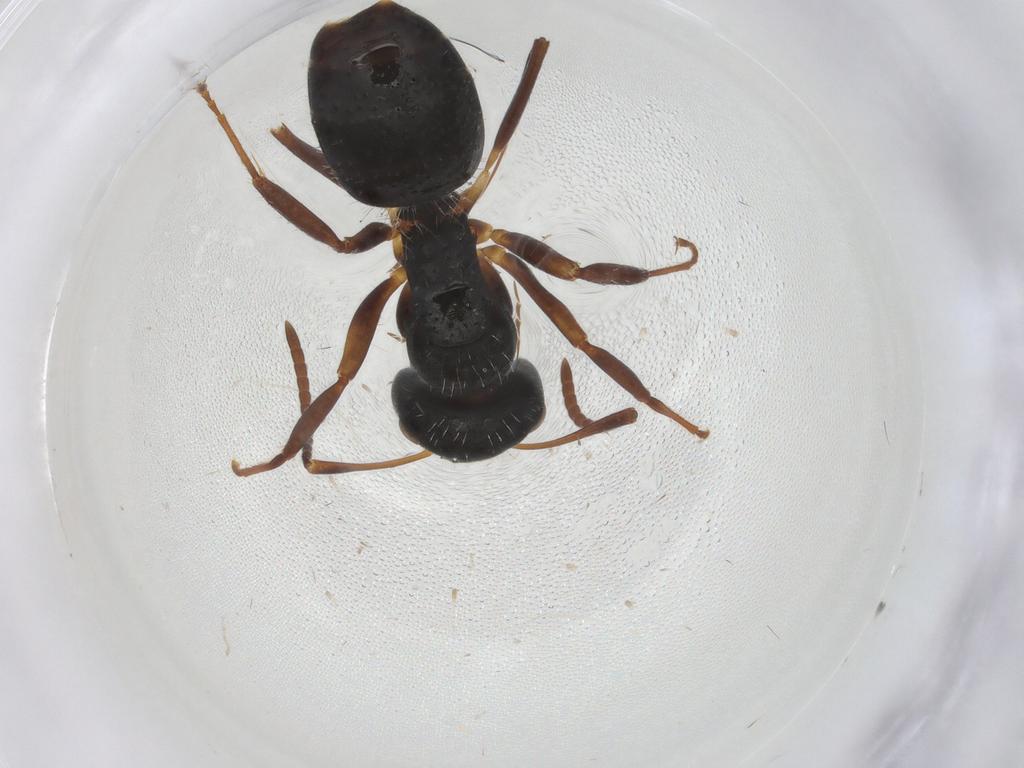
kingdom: Animalia
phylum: Arthropoda
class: Insecta
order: Hymenoptera
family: Formicidae
